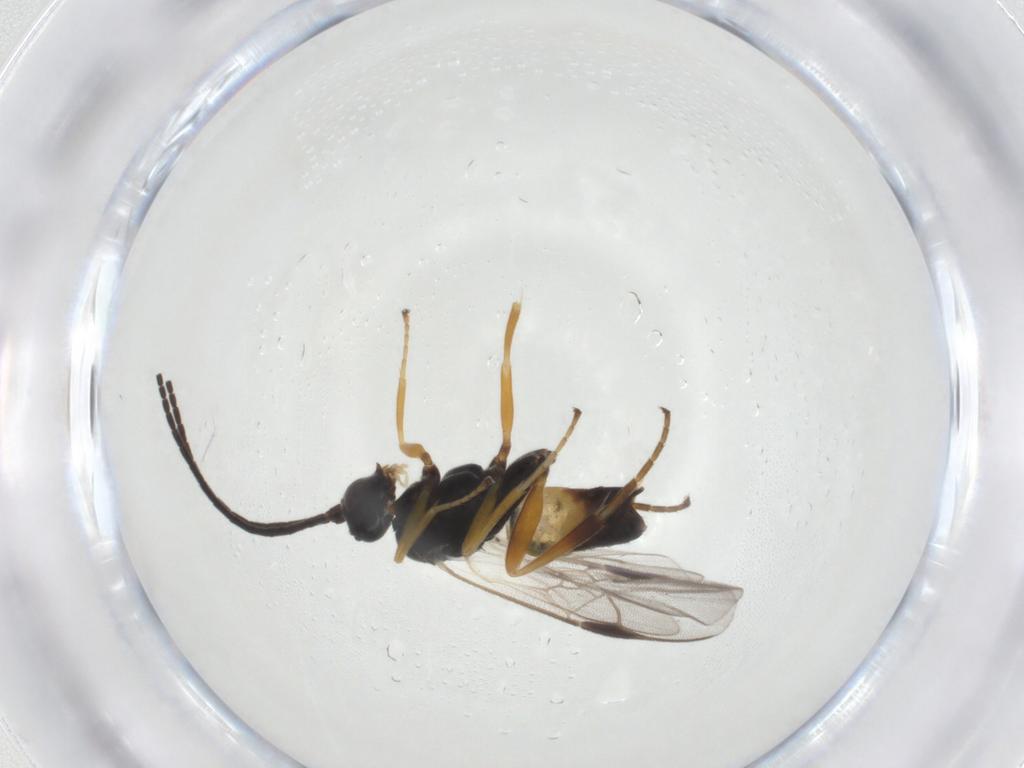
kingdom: Animalia
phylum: Arthropoda
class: Insecta
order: Hymenoptera
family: Braconidae
